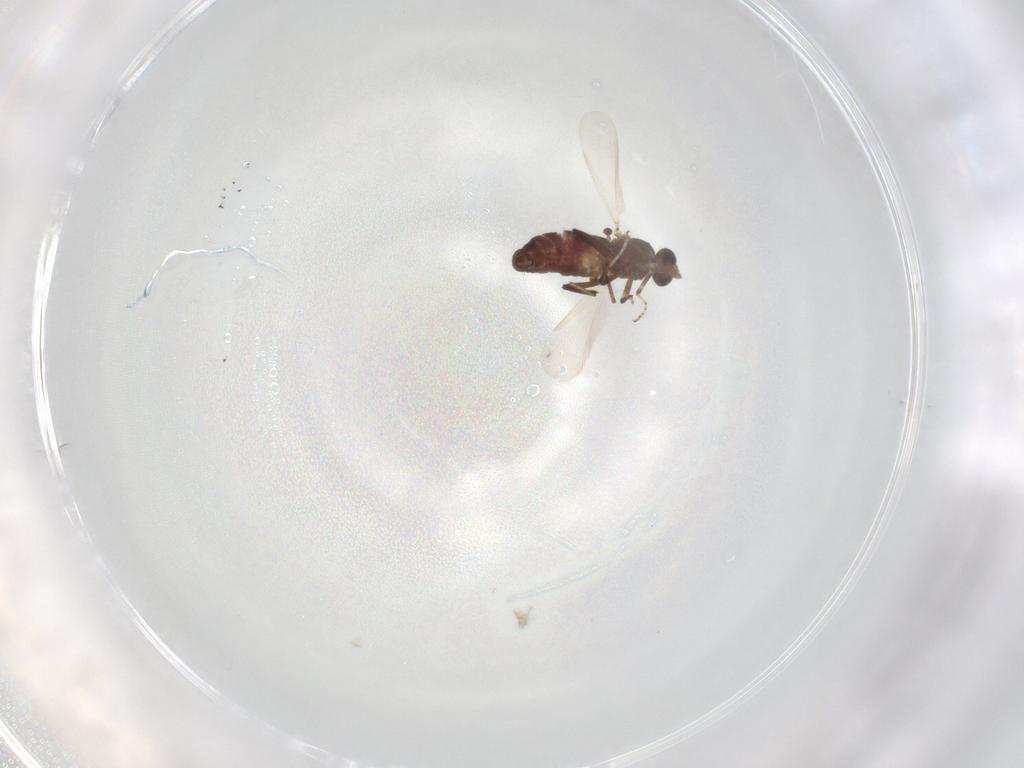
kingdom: Animalia
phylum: Arthropoda
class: Insecta
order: Diptera
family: Ceratopogonidae
